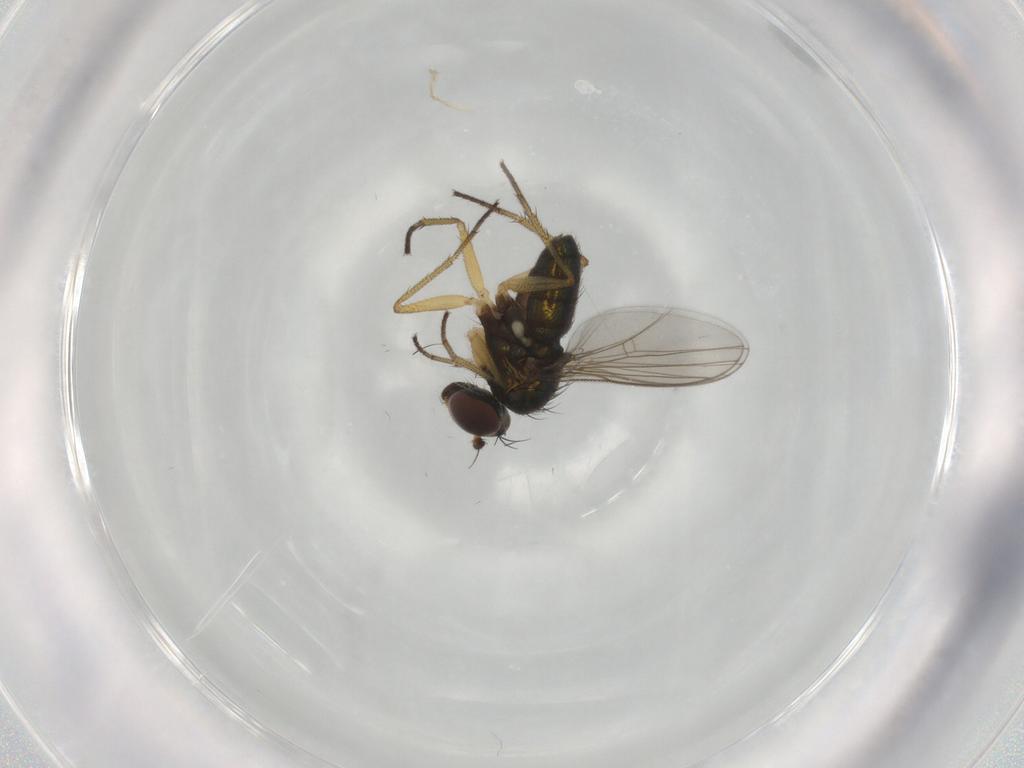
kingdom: Animalia
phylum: Arthropoda
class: Insecta
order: Diptera
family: Dolichopodidae
